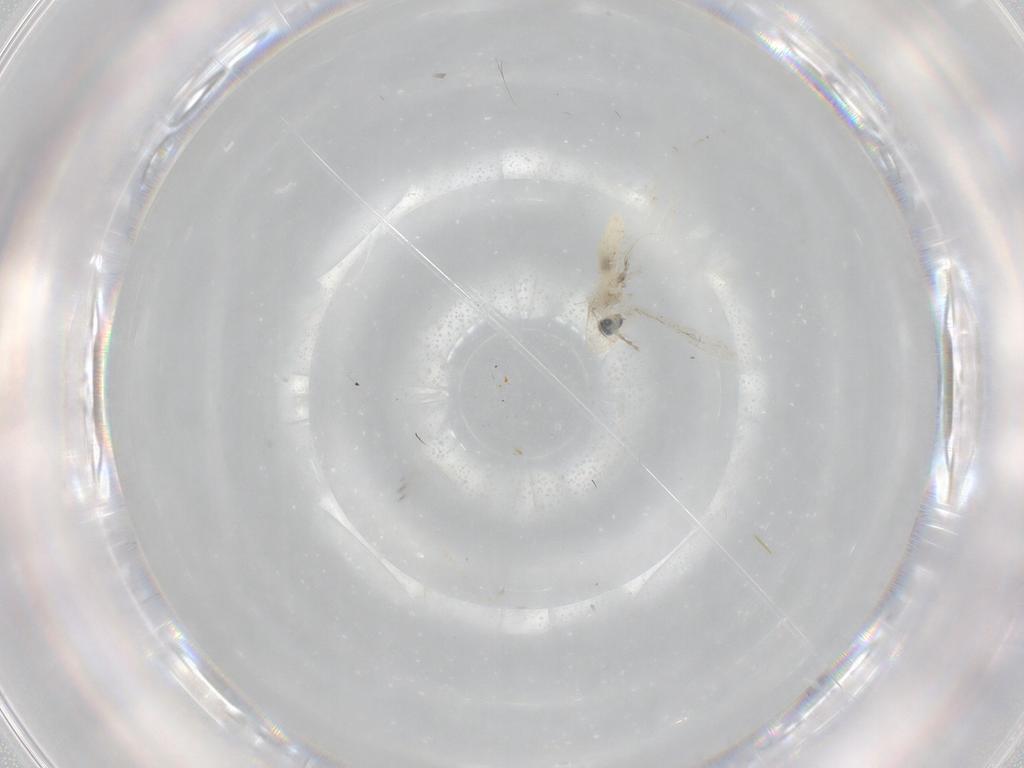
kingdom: Animalia
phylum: Arthropoda
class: Insecta
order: Diptera
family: Cecidomyiidae
